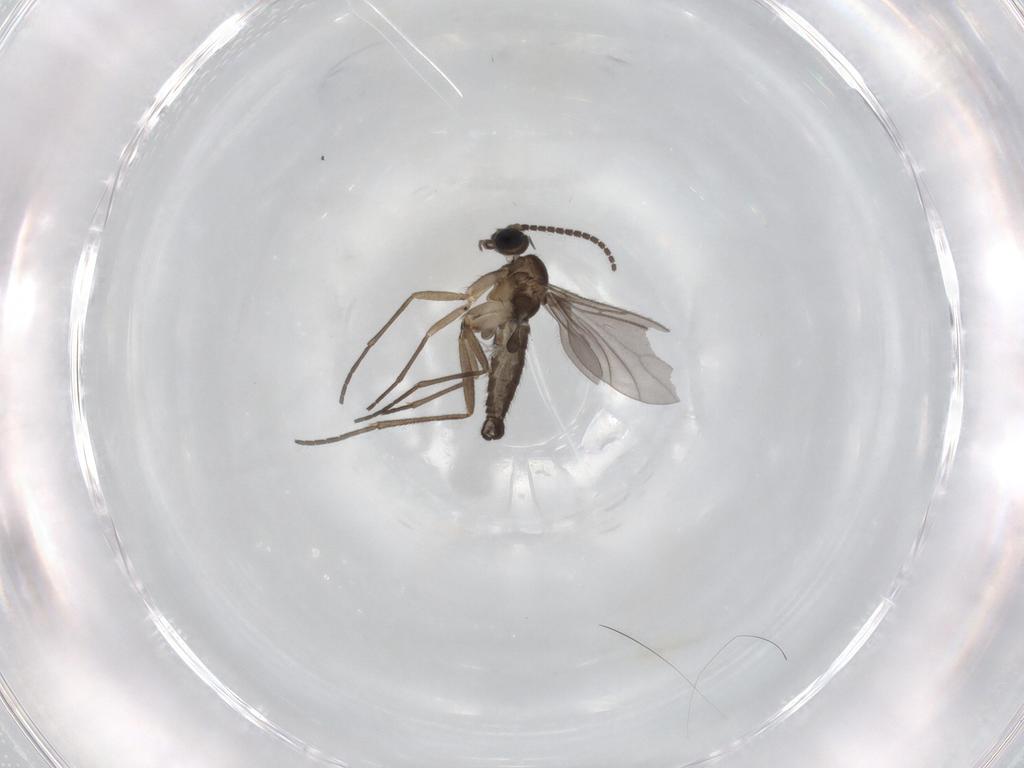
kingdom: Animalia
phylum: Arthropoda
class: Insecta
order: Diptera
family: Sciaridae
